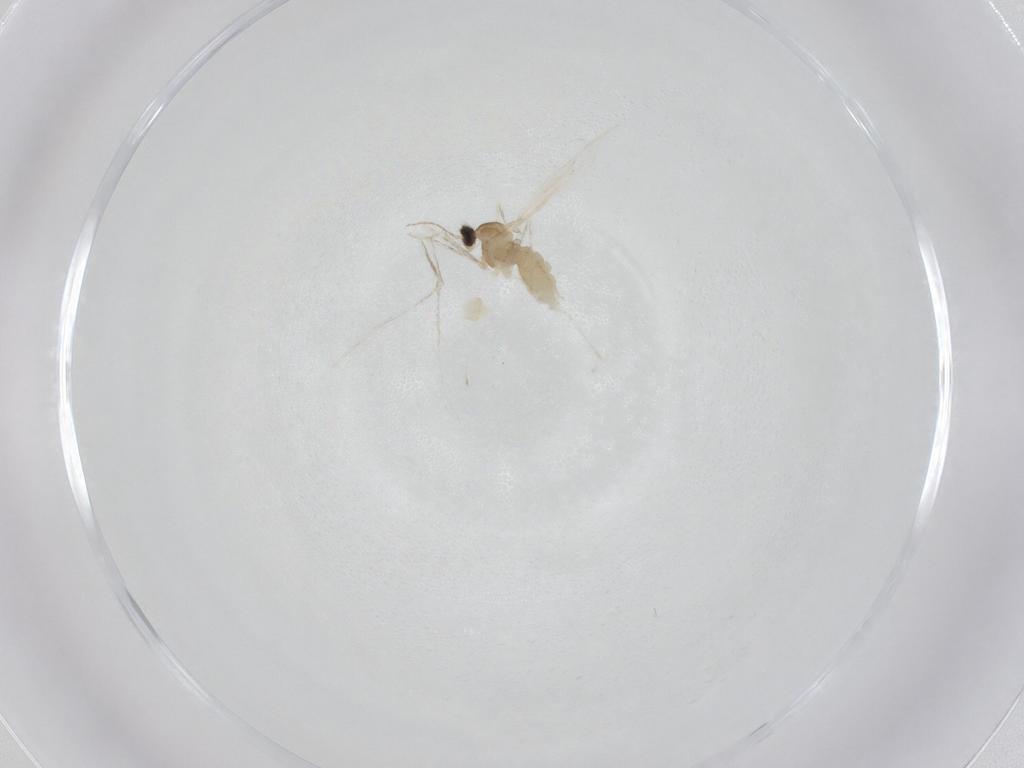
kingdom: Animalia
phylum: Arthropoda
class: Insecta
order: Diptera
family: Cecidomyiidae
